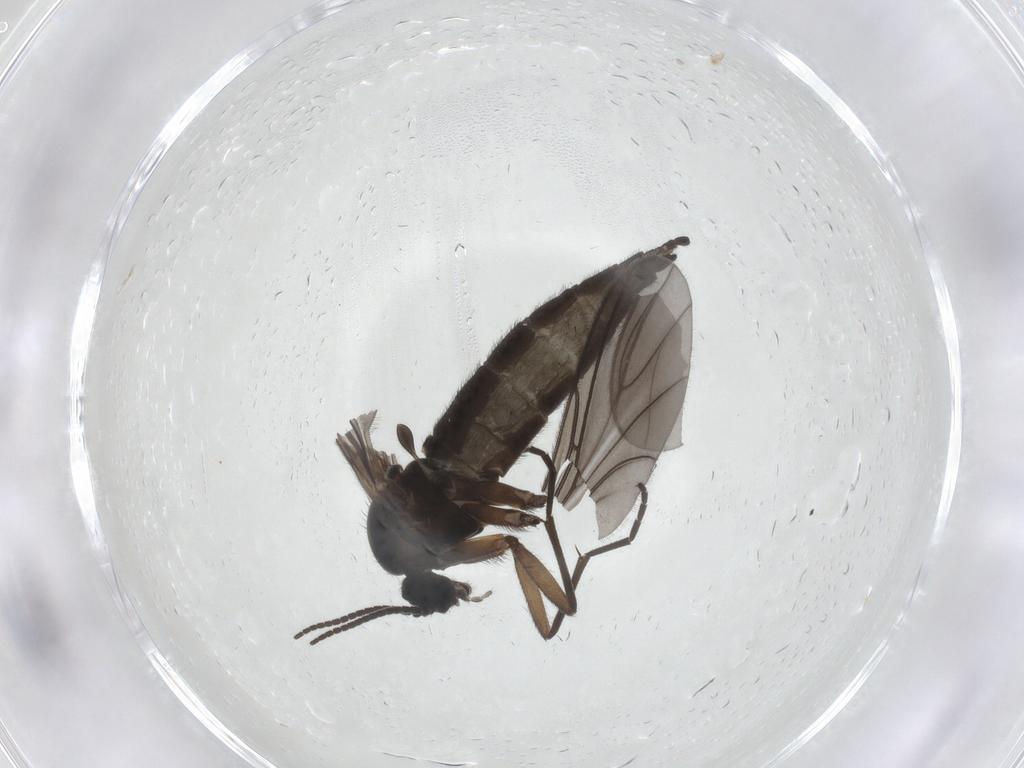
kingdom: Animalia
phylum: Arthropoda
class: Insecta
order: Diptera
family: Sciaridae
